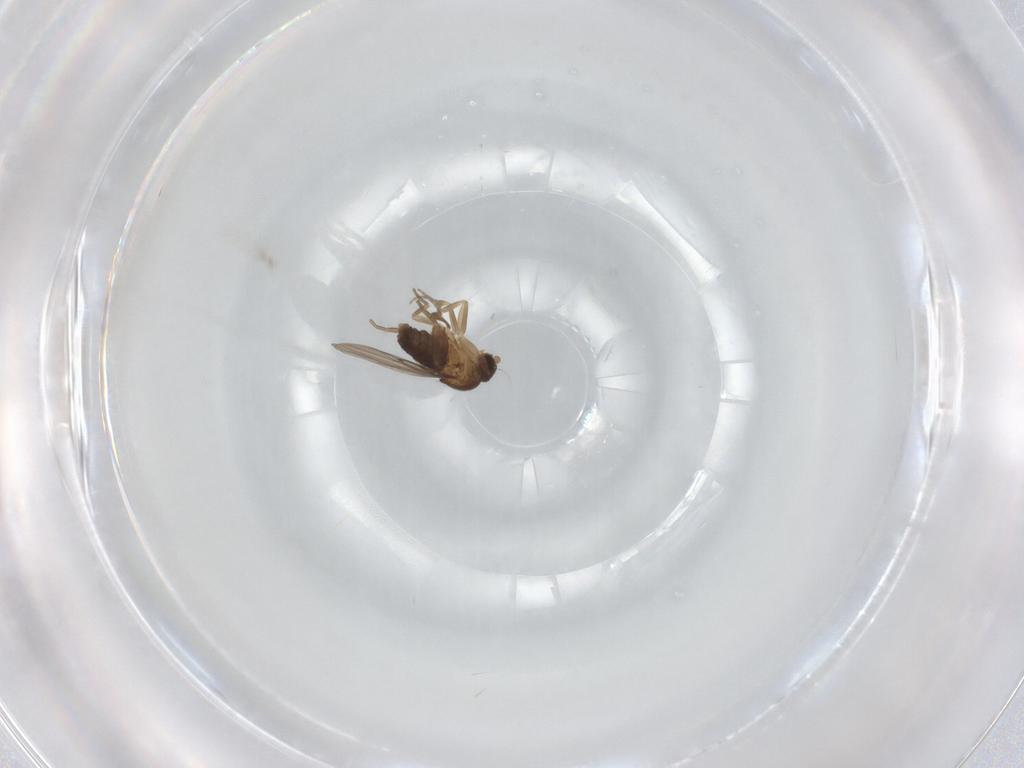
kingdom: Animalia
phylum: Arthropoda
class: Insecta
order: Diptera
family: Phoridae
